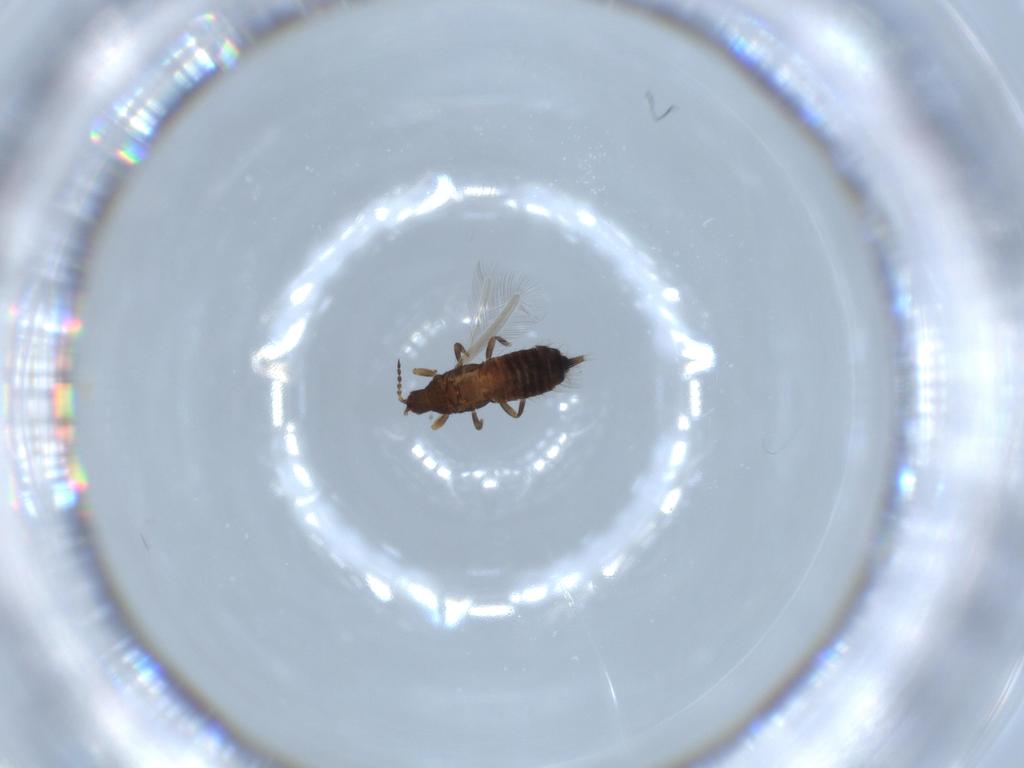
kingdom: Animalia
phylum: Arthropoda
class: Insecta
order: Thysanoptera
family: Phlaeothripidae
